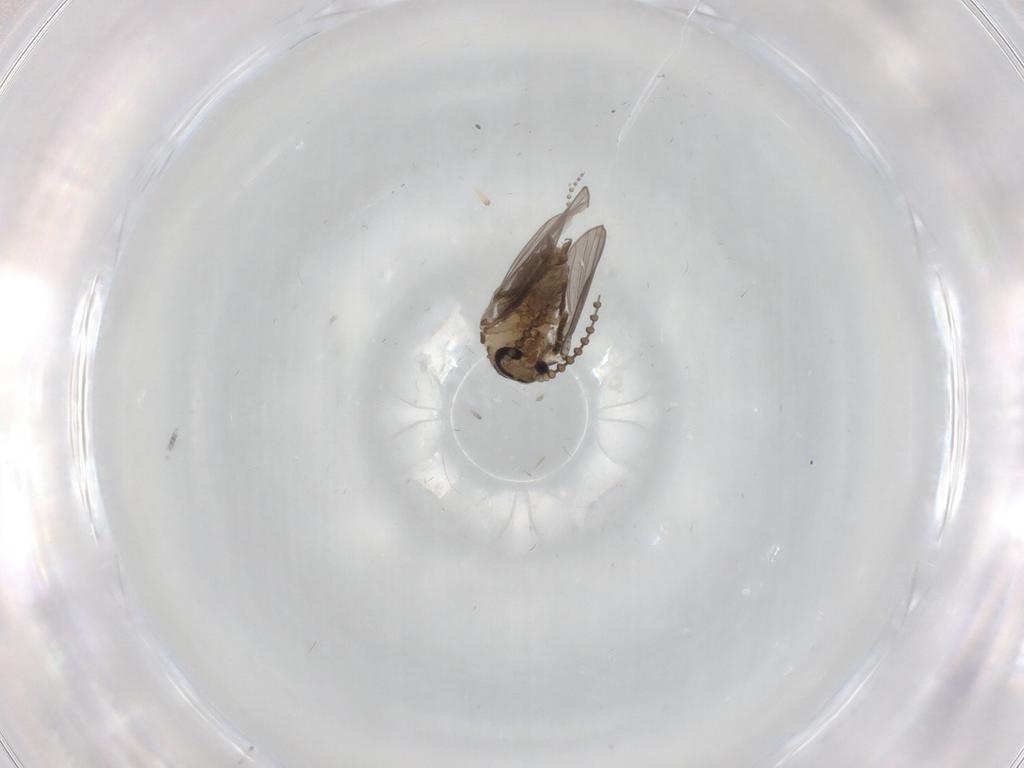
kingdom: Animalia
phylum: Arthropoda
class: Insecta
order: Diptera
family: Psychodidae
